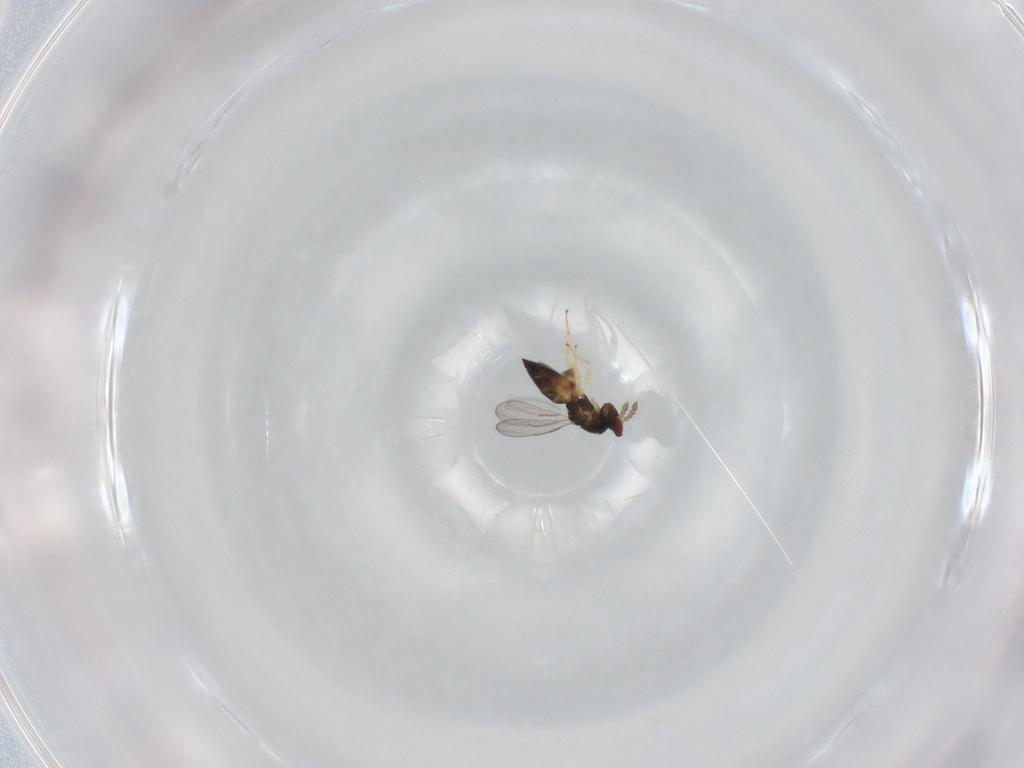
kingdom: Animalia
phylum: Arthropoda
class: Insecta
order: Hymenoptera
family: Eulophidae
